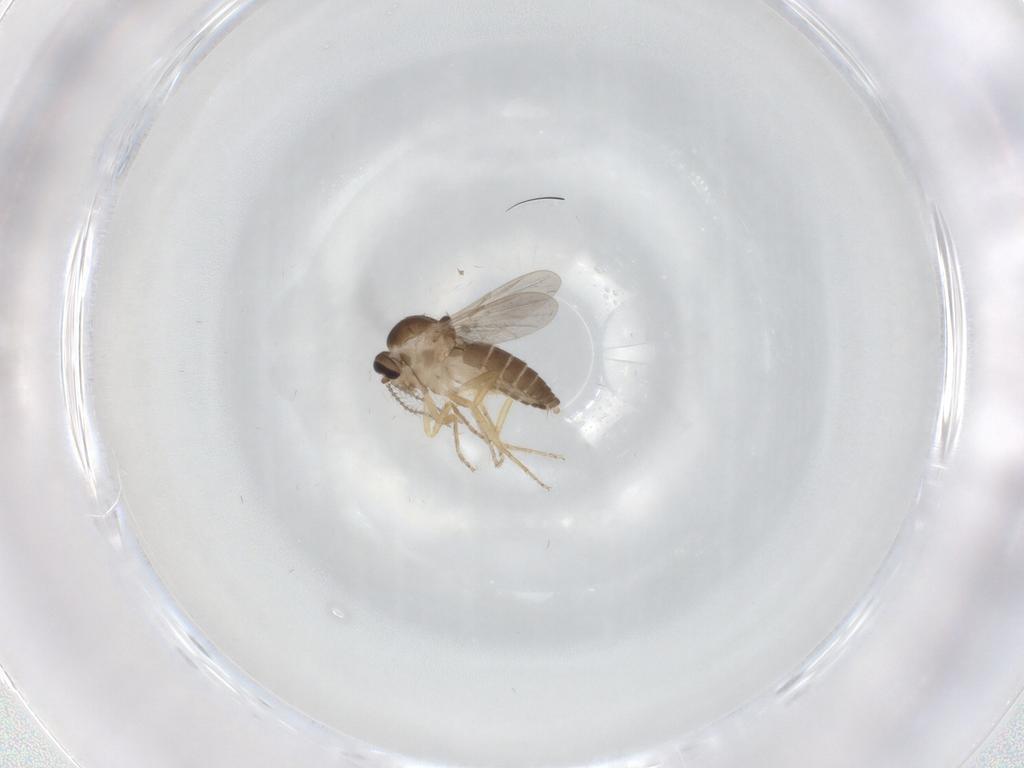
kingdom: Animalia
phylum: Arthropoda
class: Insecta
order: Diptera
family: Ceratopogonidae
